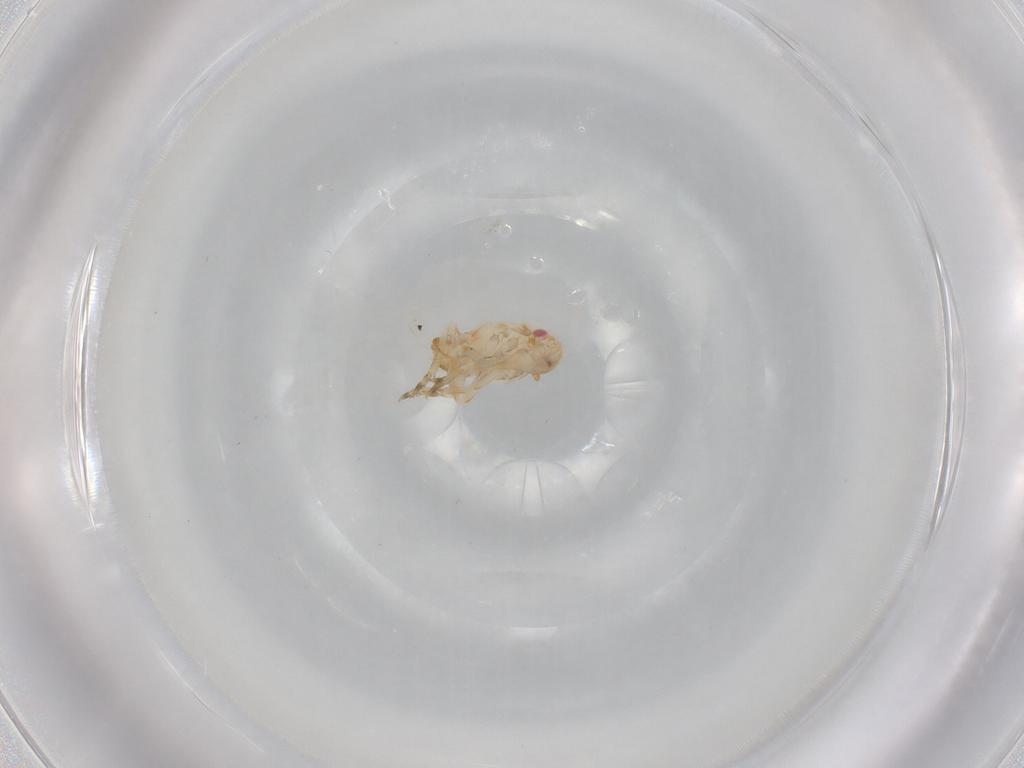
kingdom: Animalia
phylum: Arthropoda
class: Insecta
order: Hemiptera
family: Flatidae
